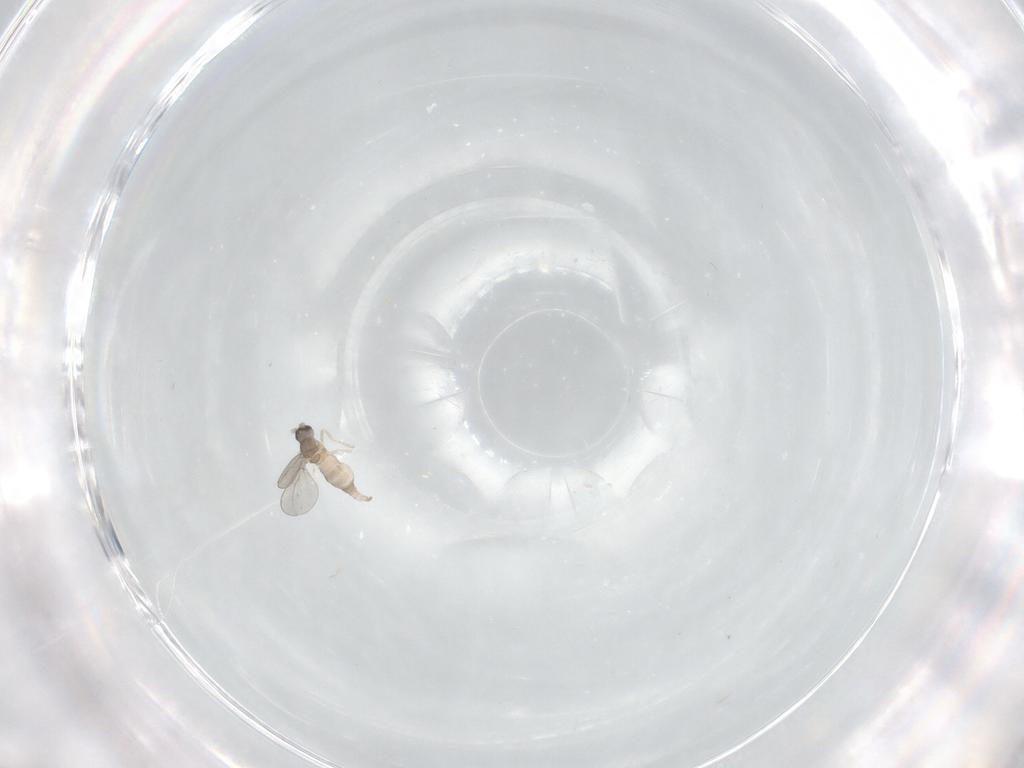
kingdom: Animalia
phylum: Arthropoda
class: Insecta
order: Diptera
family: Cecidomyiidae
